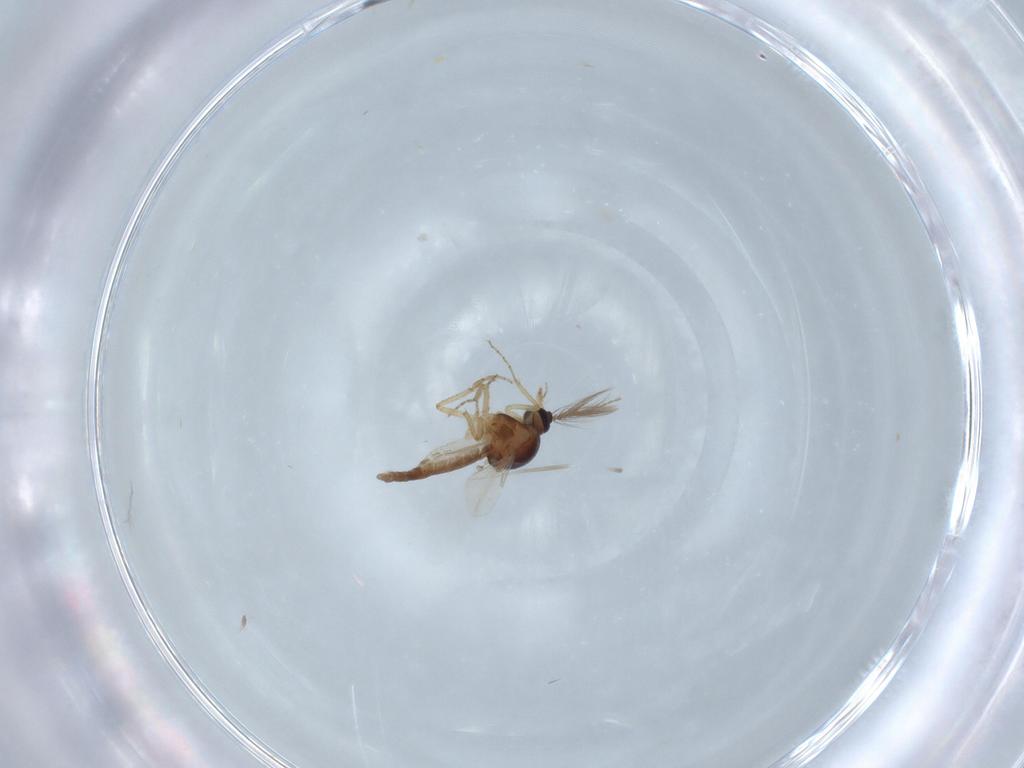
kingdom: Animalia
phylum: Arthropoda
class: Insecta
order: Diptera
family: Ceratopogonidae
